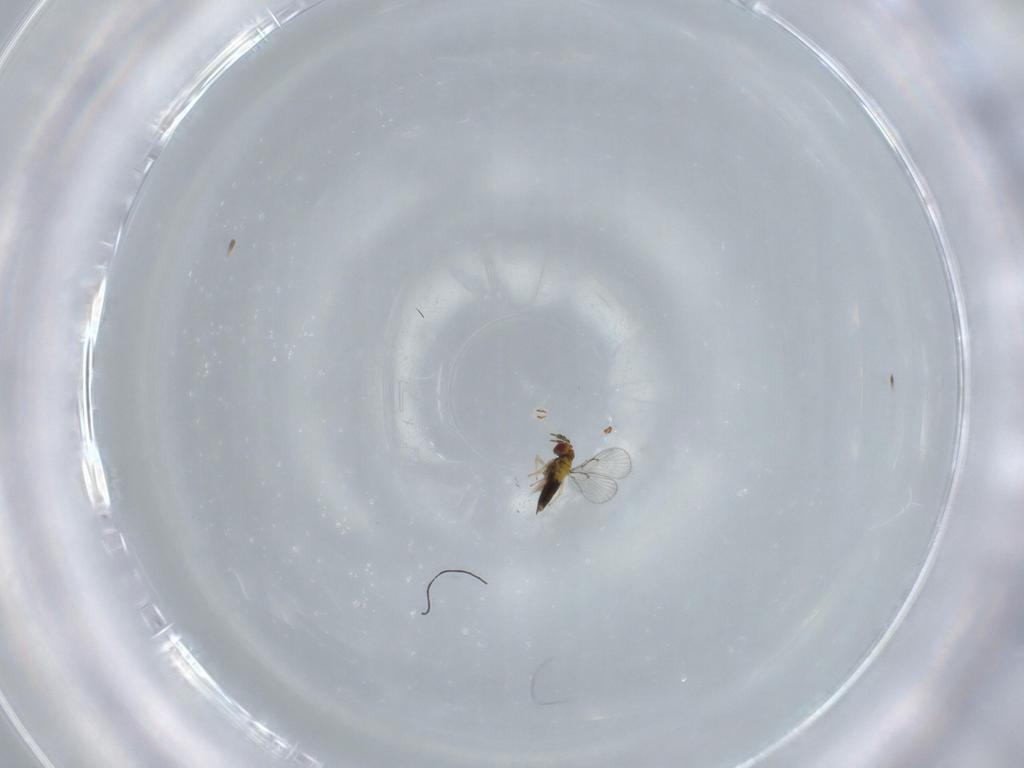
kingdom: Animalia
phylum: Arthropoda
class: Insecta
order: Hymenoptera
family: Trichogrammatidae
